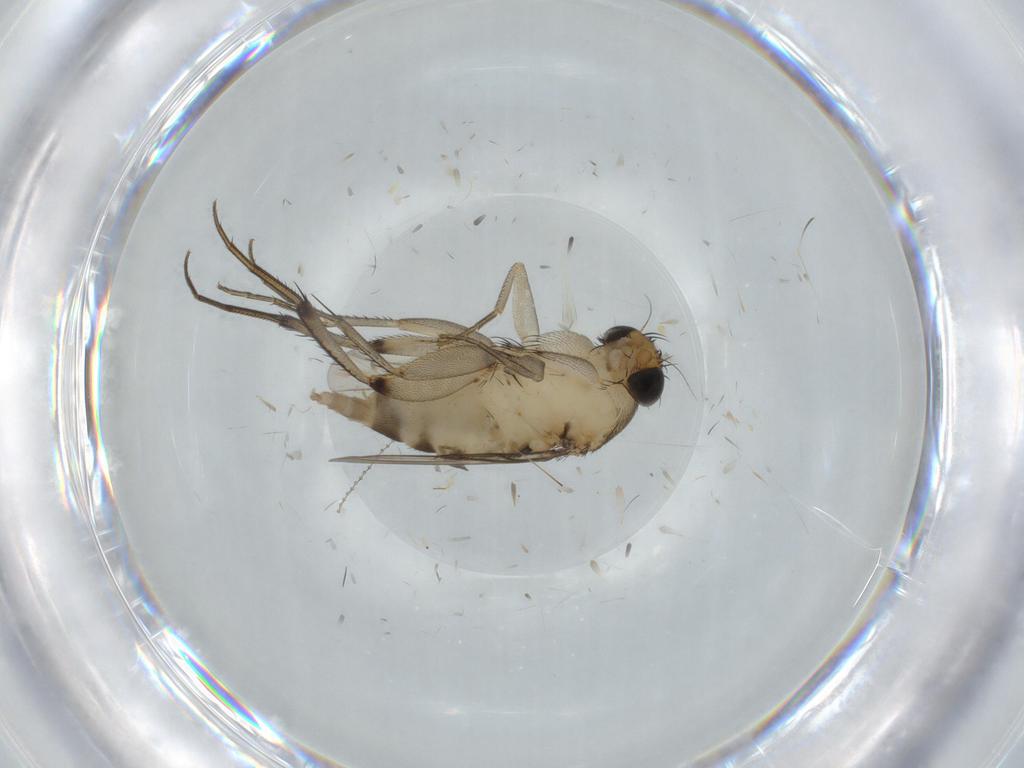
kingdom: Animalia
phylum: Arthropoda
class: Insecta
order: Diptera
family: Phoridae
